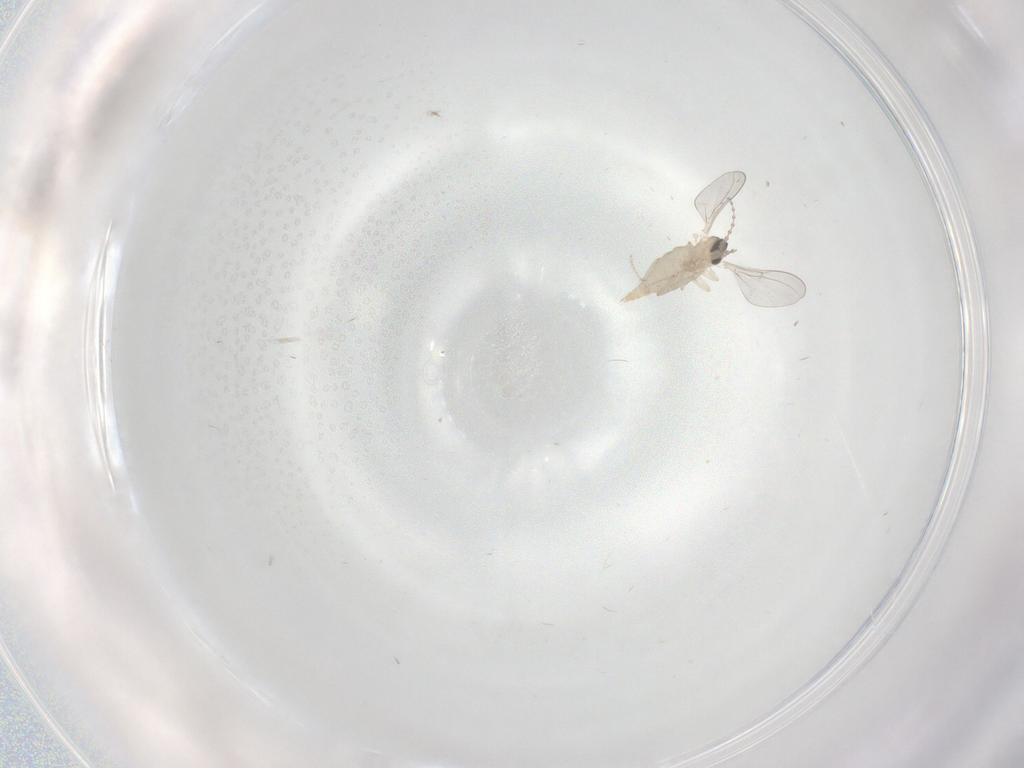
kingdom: Animalia
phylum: Arthropoda
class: Insecta
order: Diptera
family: Cecidomyiidae
